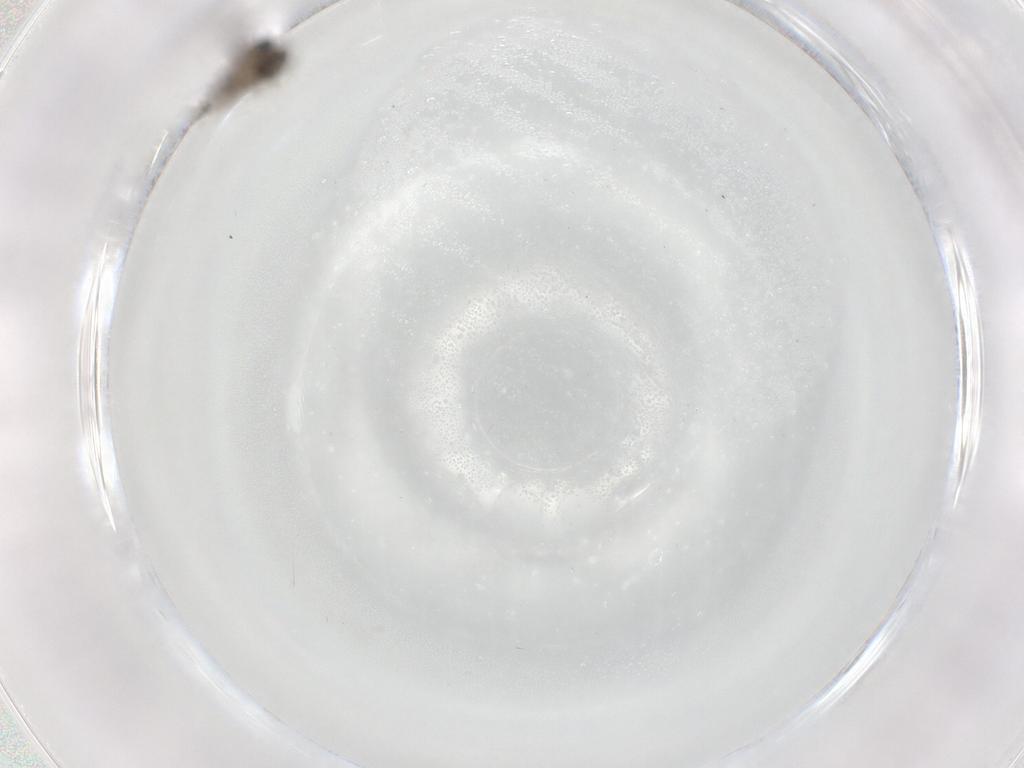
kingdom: Animalia
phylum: Arthropoda
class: Insecta
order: Diptera
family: Cecidomyiidae
